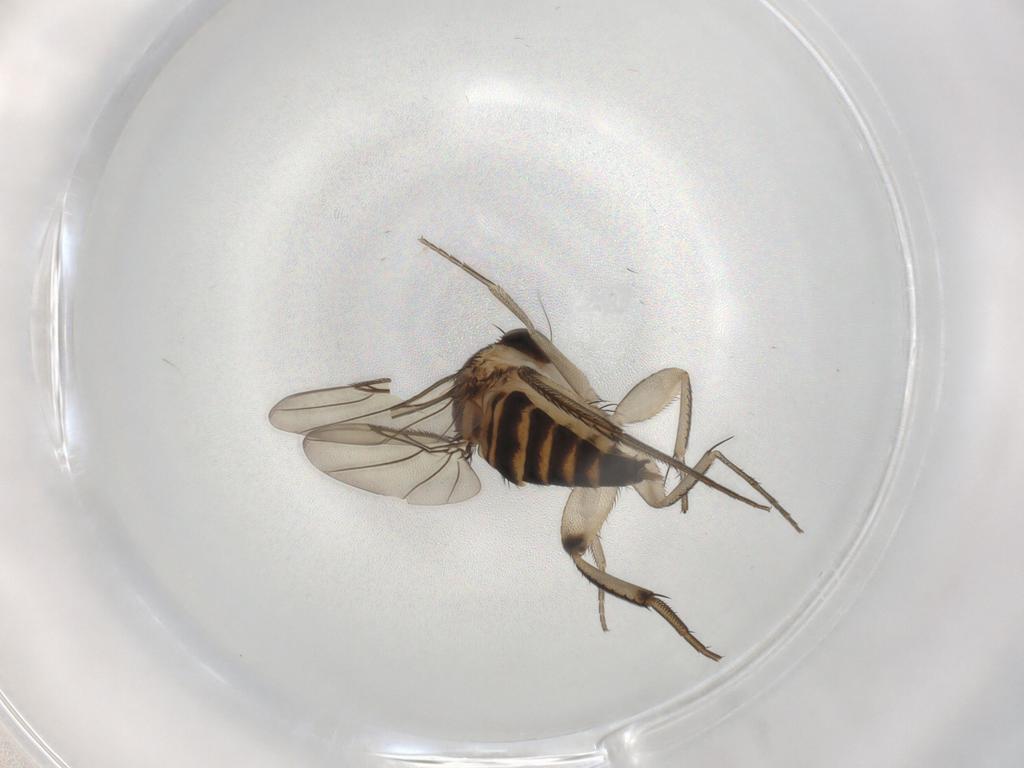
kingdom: Animalia
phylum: Arthropoda
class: Insecta
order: Diptera
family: Phoridae
